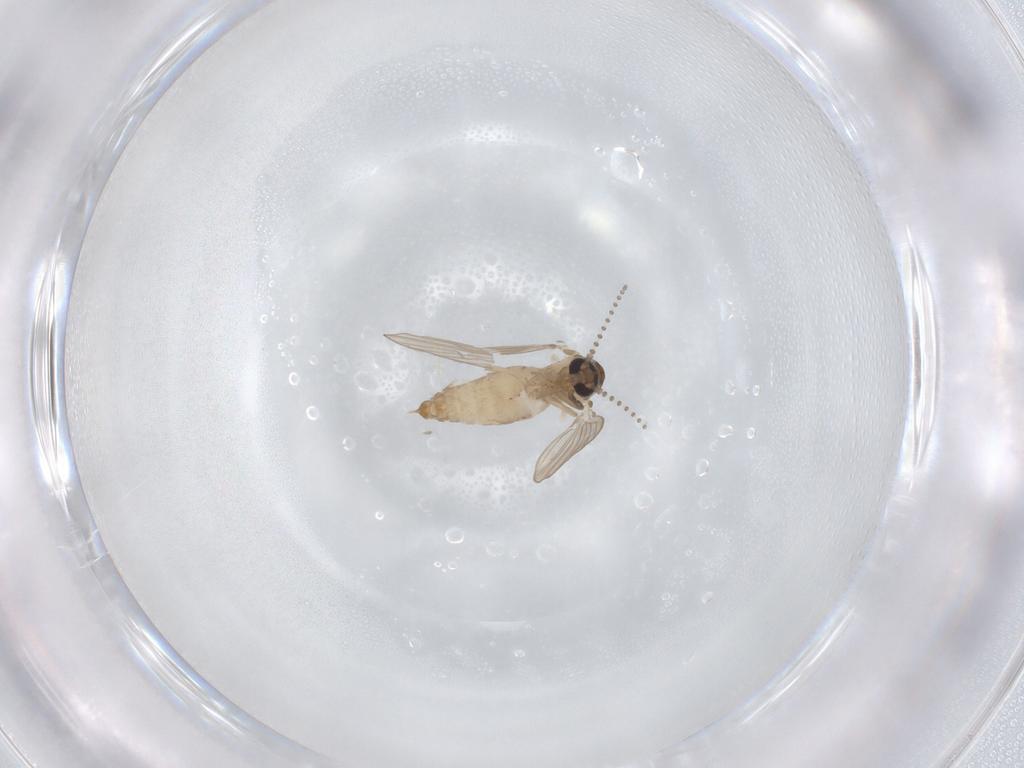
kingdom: Animalia
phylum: Arthropoda
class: Insecta
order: Diptera
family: Psychodidae
